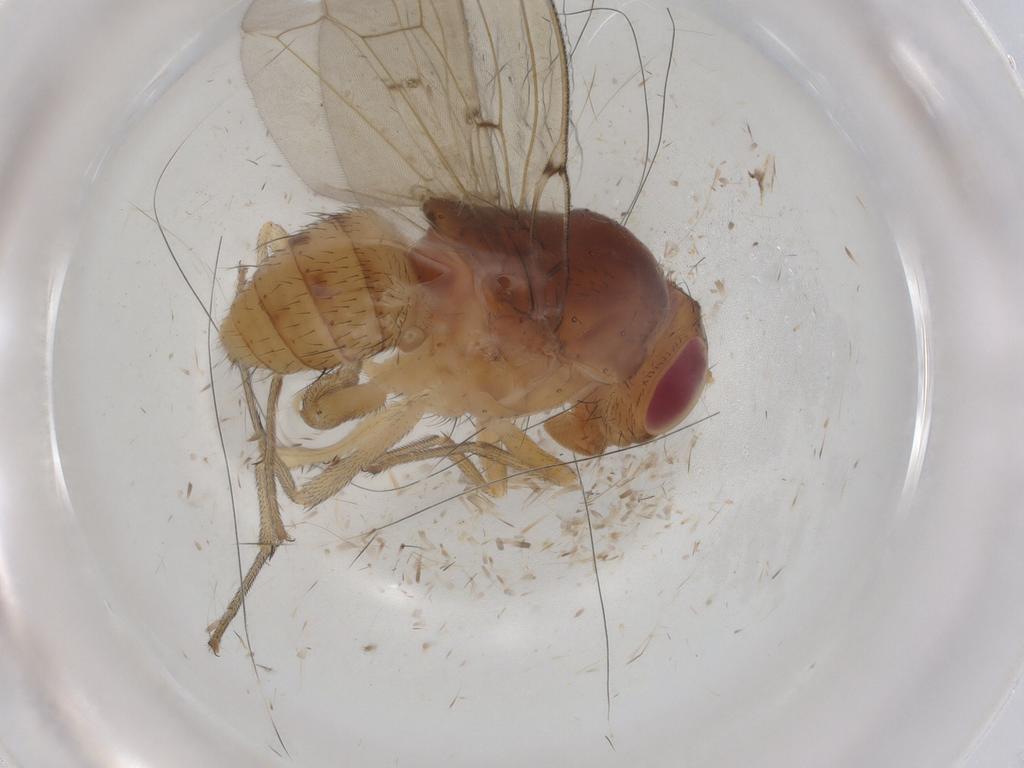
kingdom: Animalia
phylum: Arthropoda
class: Insecta
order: Diptera
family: Ephydridae
